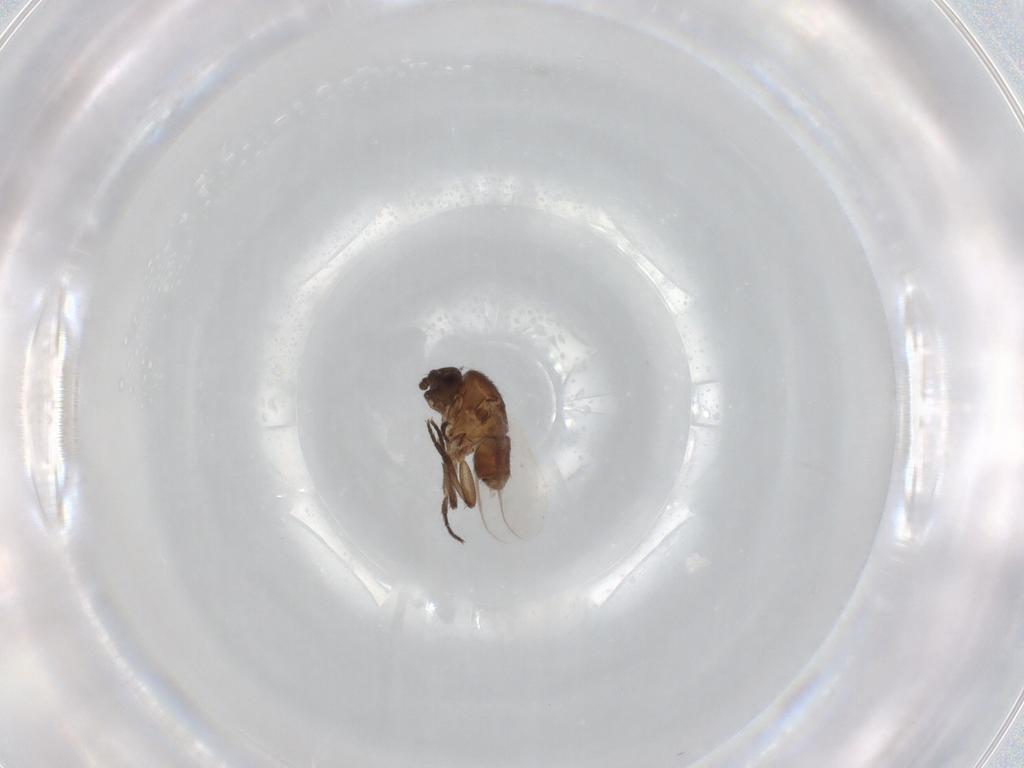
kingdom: Animalia
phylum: Arthropoda
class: Insecta
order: Diptera
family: Sphaeroceridae
